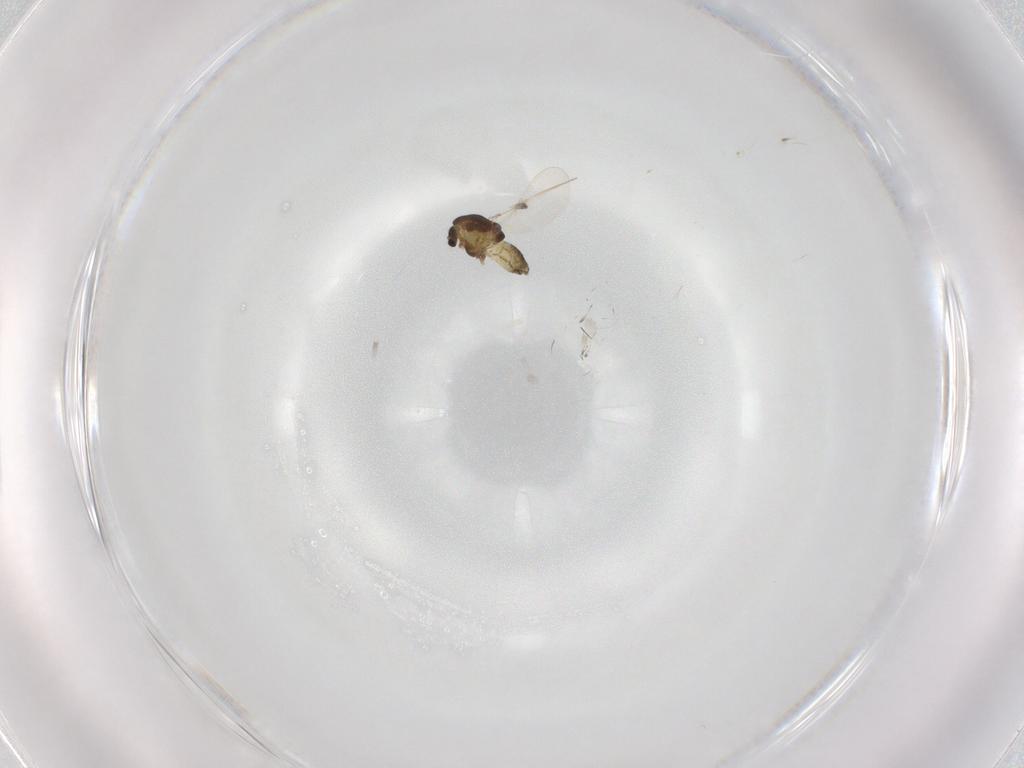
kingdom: Animalia
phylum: Arthropoda
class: Insecta
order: Diptera
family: Chironomidae
